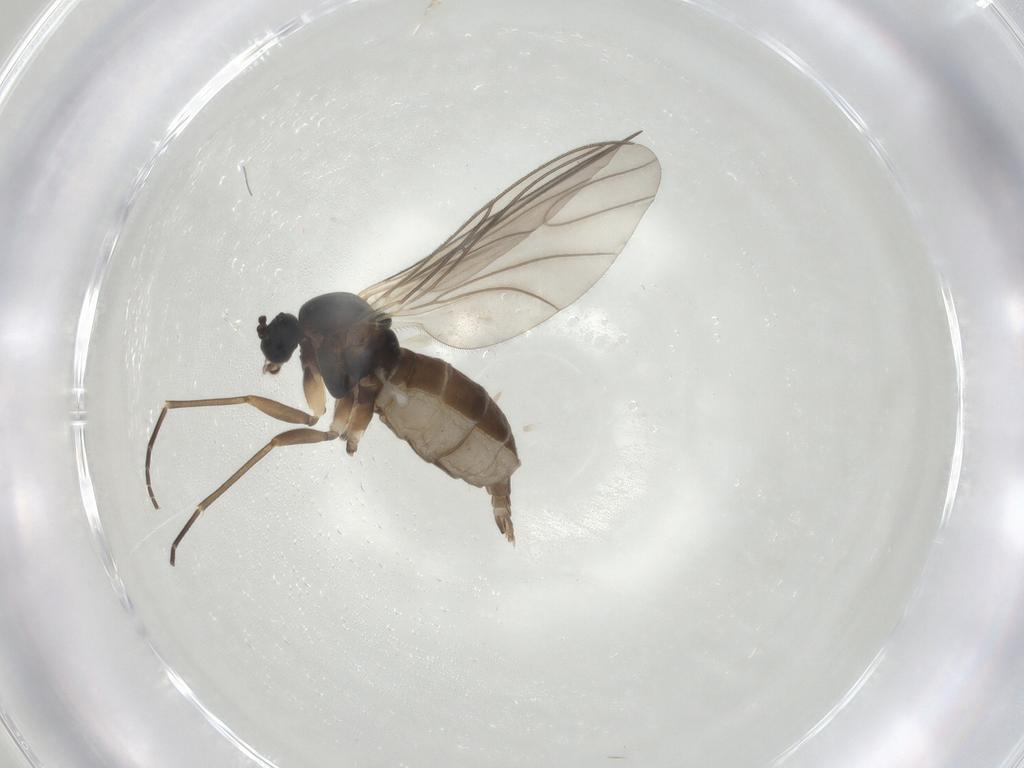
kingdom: Animalia
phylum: Arthropoda
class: Insecta
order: Diptera
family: Sciaridae
